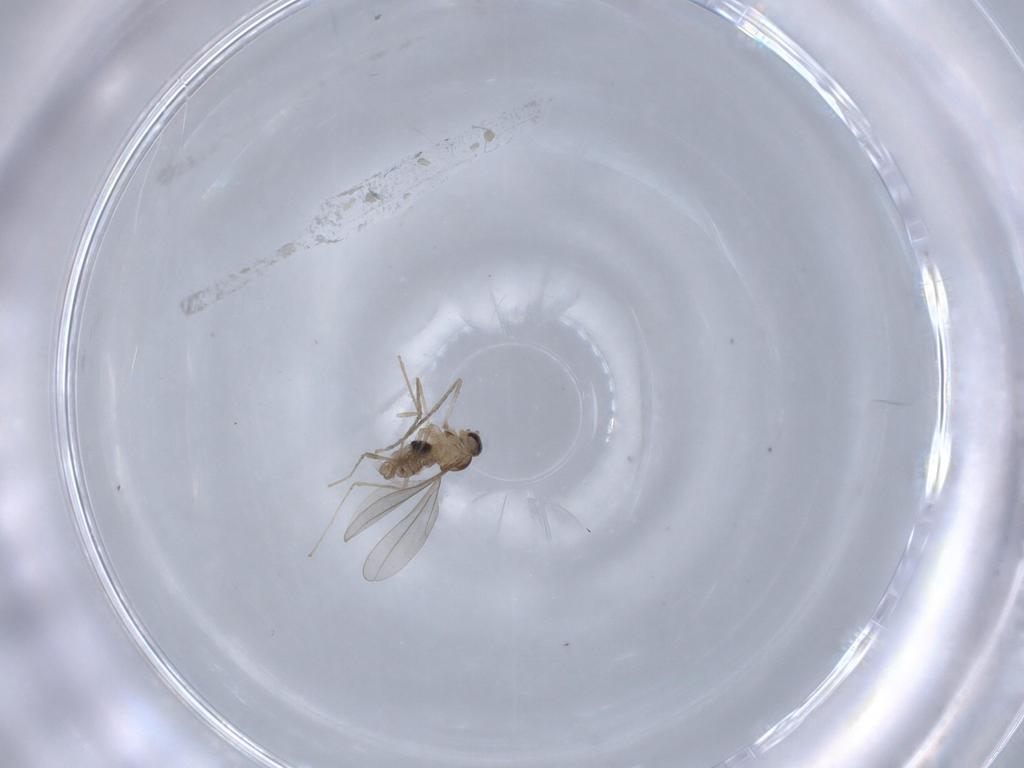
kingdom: Animalia
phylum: Arthropoda
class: Insecta
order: Diptera
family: Cecidomyiidae
